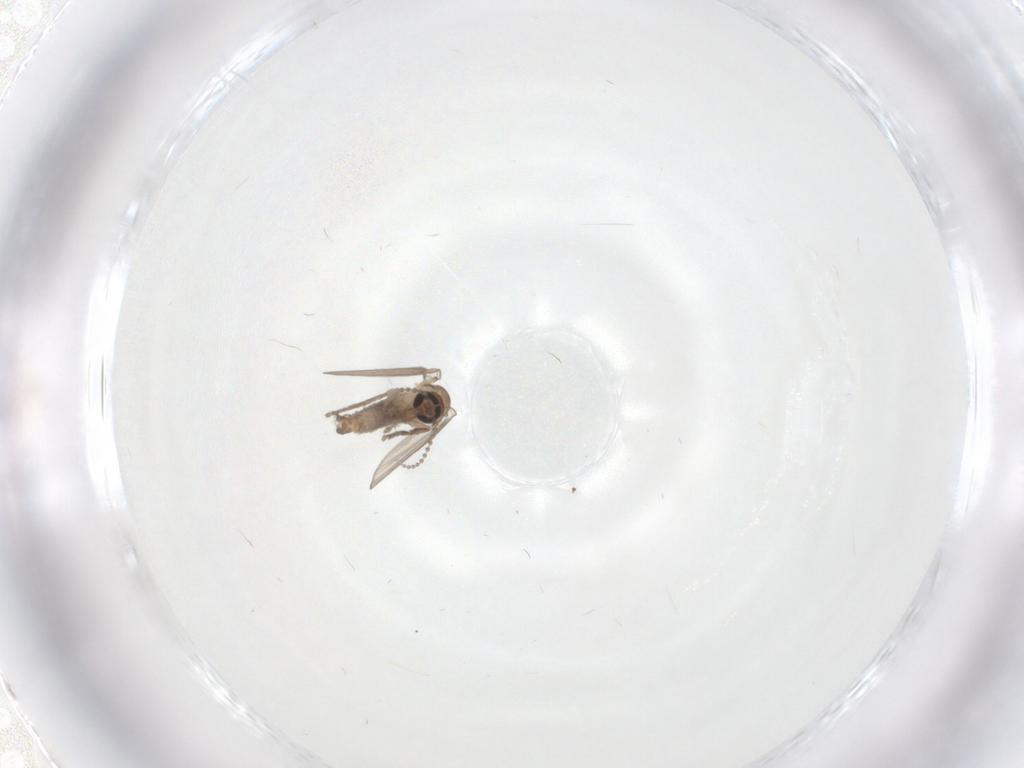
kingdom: Animalia
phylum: Arthropoda
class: Insecta
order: Diptera
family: Psychodidae
